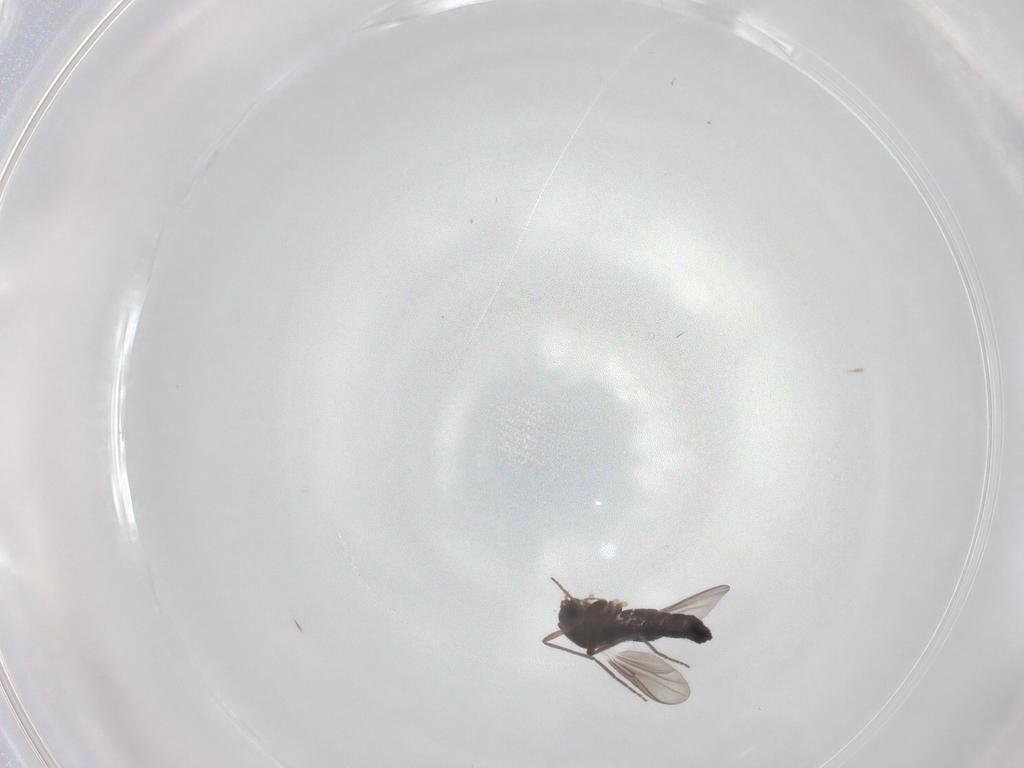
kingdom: Animalia
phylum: Arthropoda
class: Insecta
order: Diptera
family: Chironomidae
